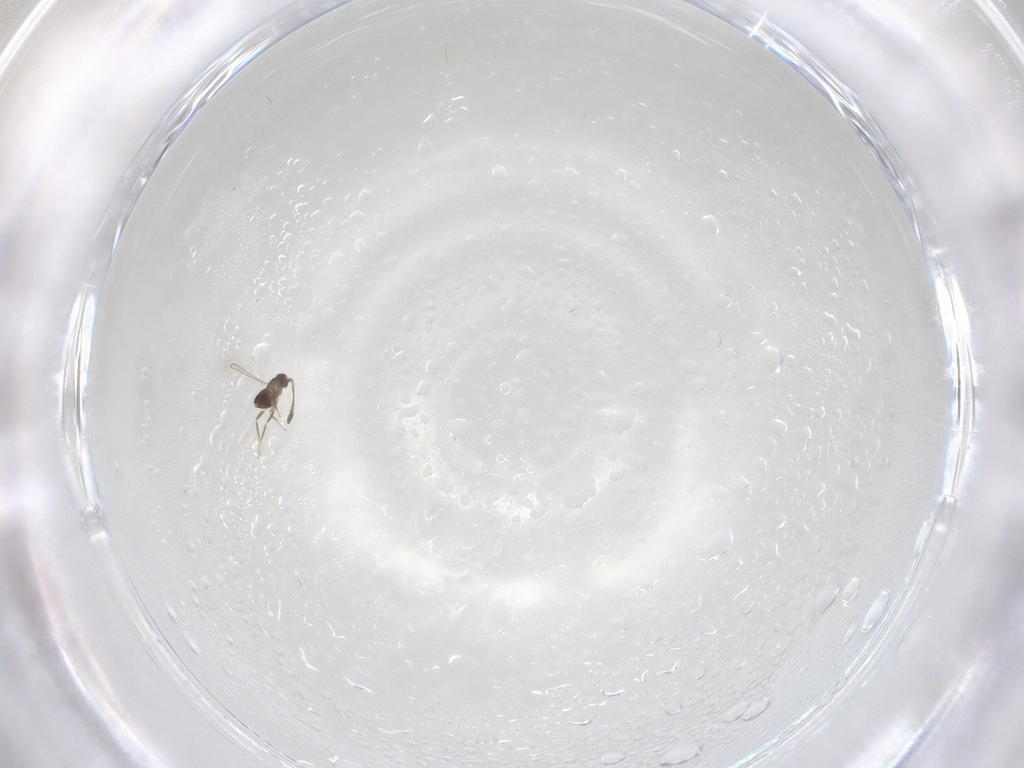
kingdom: Animalia
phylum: Arthropoda
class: Insecta
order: Hymenoptera
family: Mymaridae
